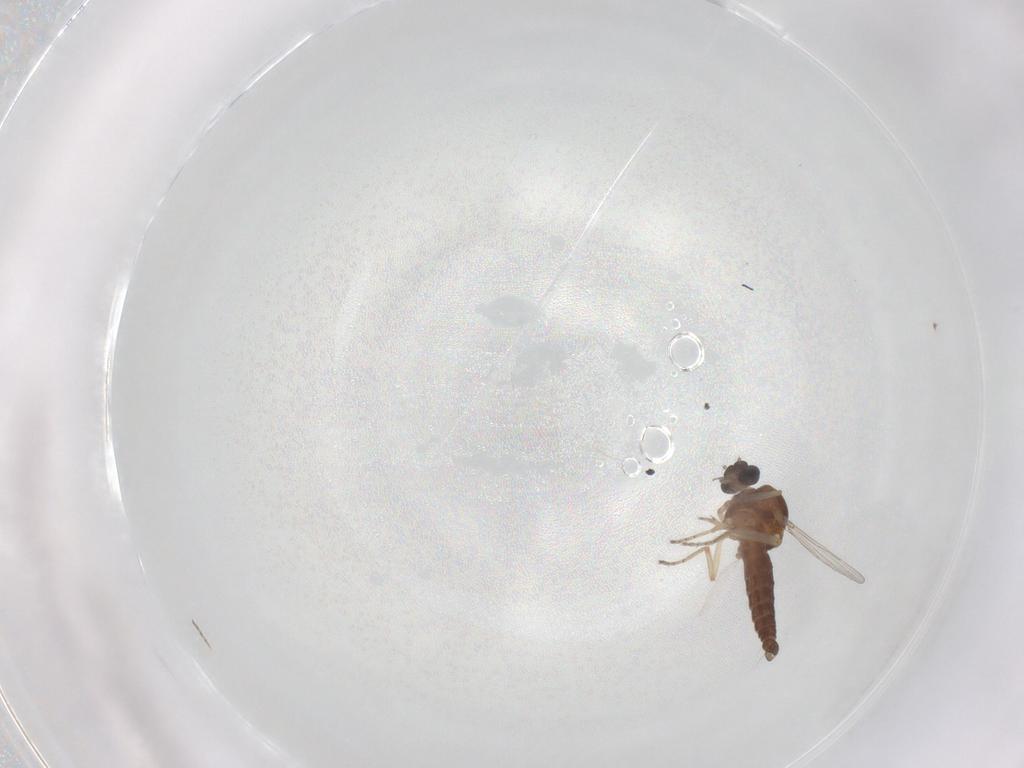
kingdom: Animalia
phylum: Arthropoda
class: Insecta
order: Diptera
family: Ceratopogonidae
